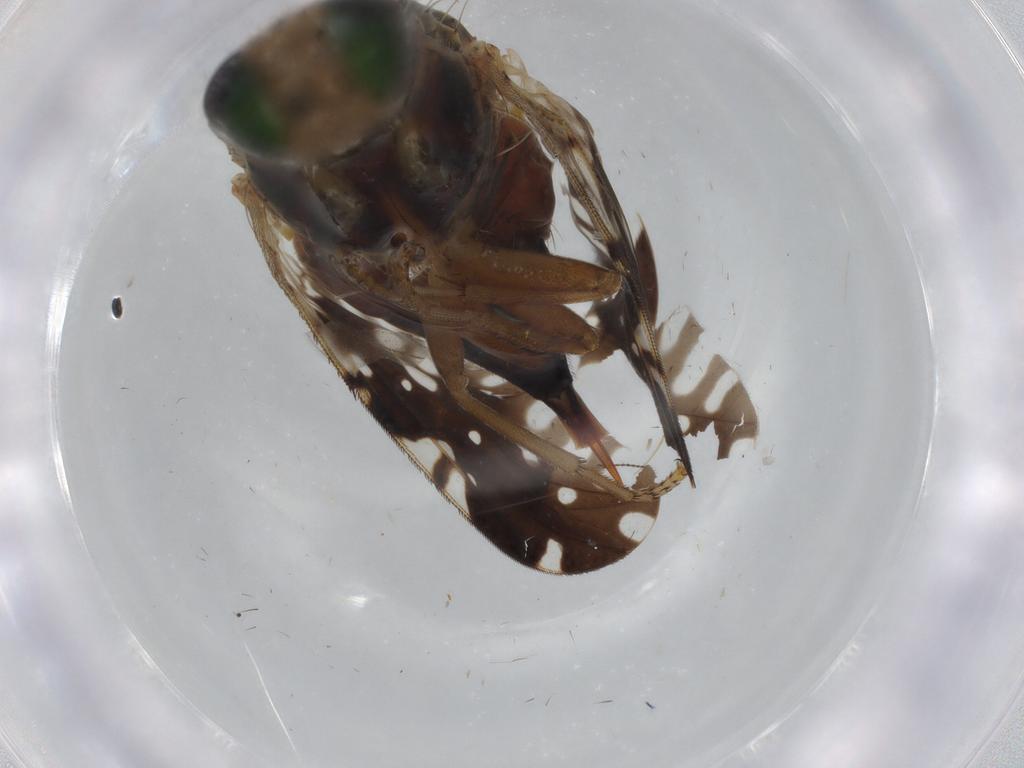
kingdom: Animalia
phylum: Arthropoda
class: Insecta
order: Diptera
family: Tephritidae
